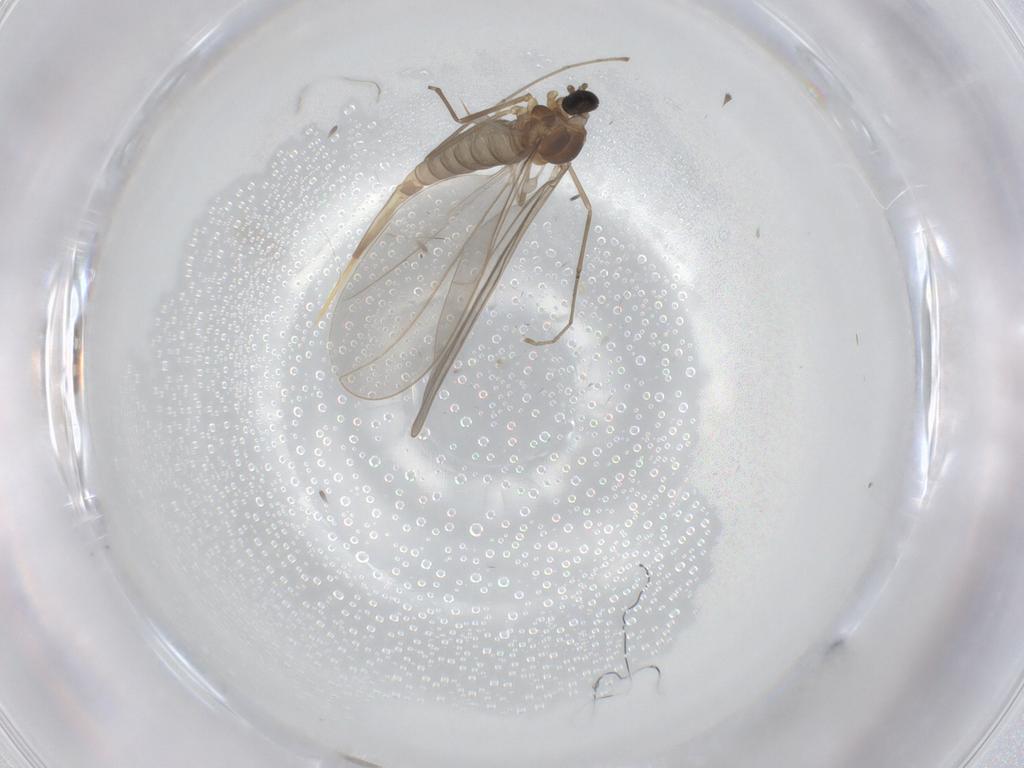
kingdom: Animalia
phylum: Arthropoda
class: Insecta
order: Diptera
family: Cecidomyiidae
